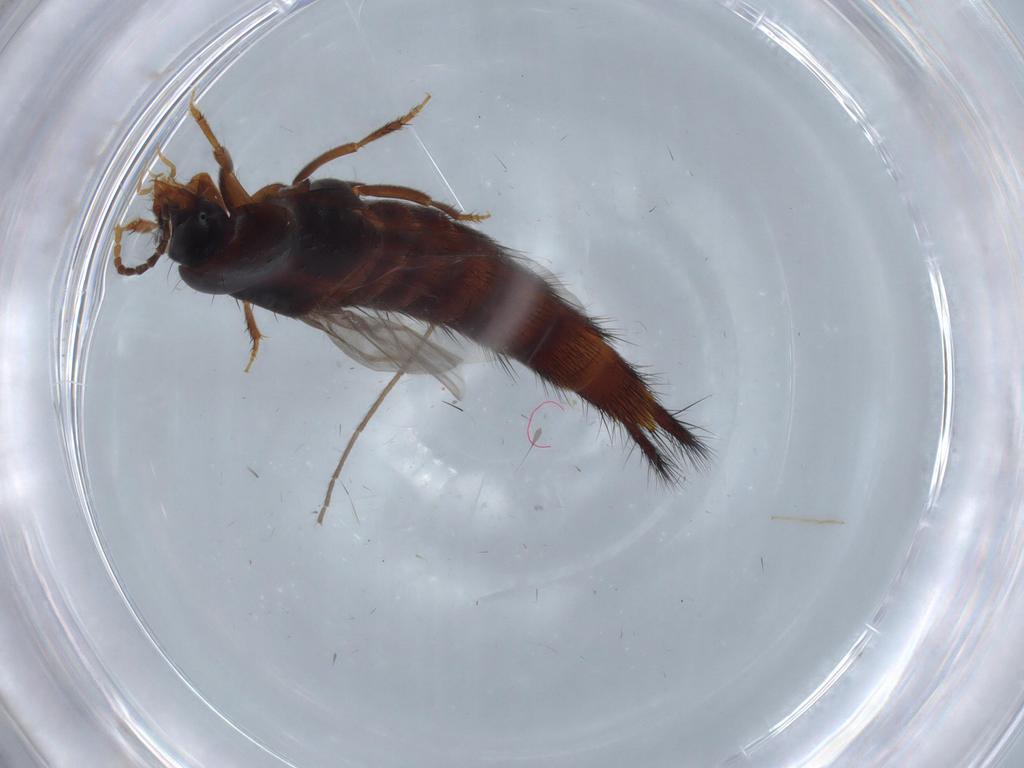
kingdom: Animalia
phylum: Arthropoda
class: Insecta
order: Coleoptera
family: Staphylinidae
